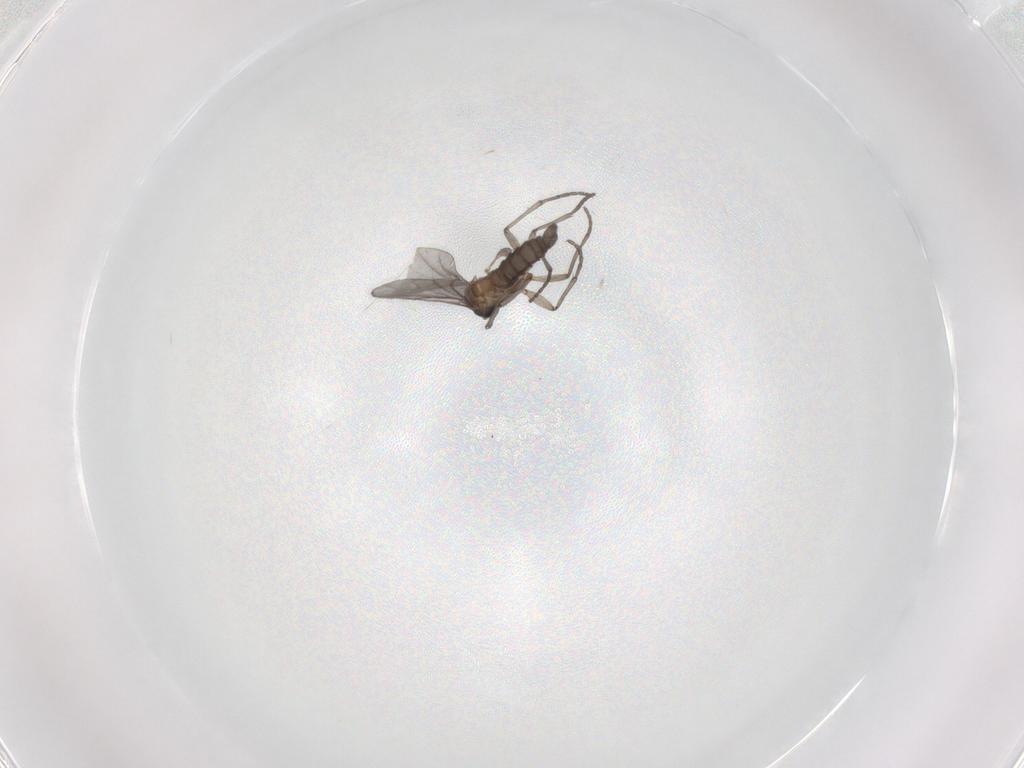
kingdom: Animalia
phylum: Arthropoda
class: Insecta
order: Diptera
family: Sciaridae
